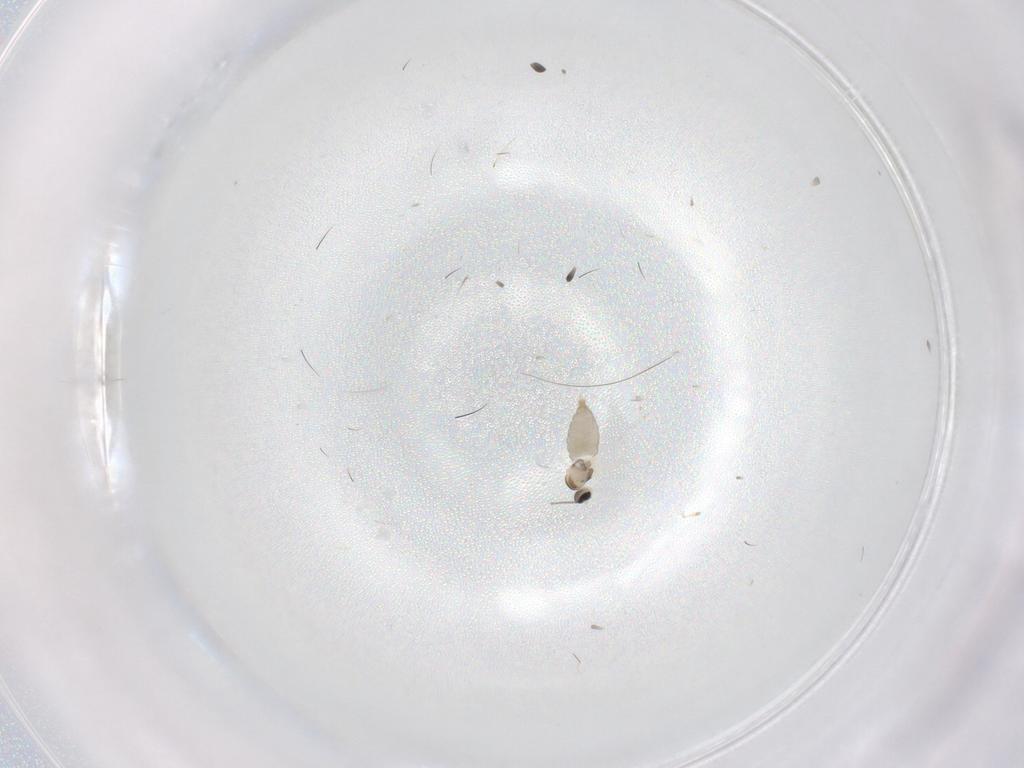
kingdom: Animalia
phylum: Arthropoda
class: Insecta
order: Diptera
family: Cecidomyiidae
